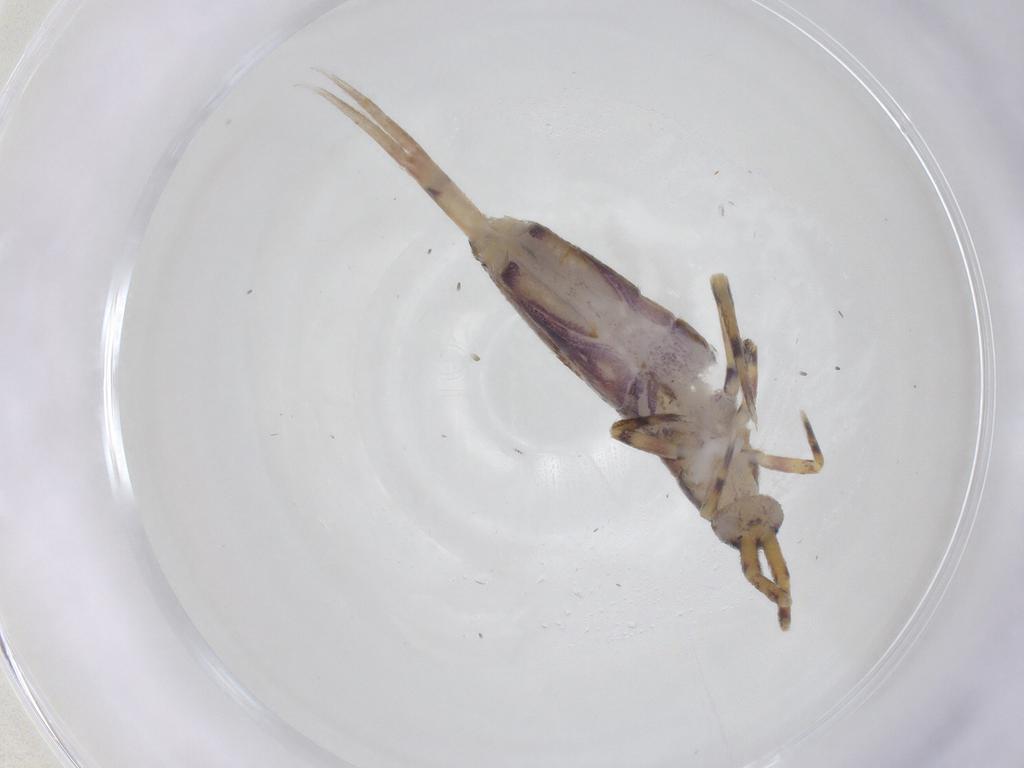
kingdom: Animalia
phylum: Arthropoda
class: Collembola
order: Entomobryomorpha
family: Entomobryidae
